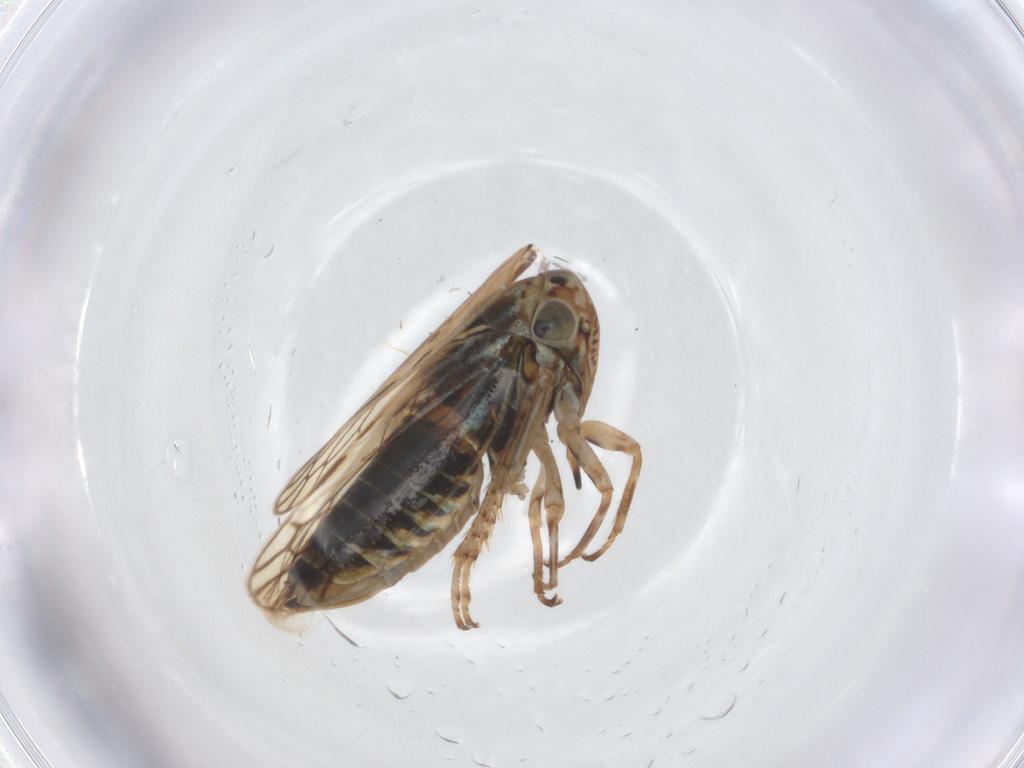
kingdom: Animalia
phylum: Arthropoda
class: Insecta
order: Hemiptera
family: Cicadellidae
